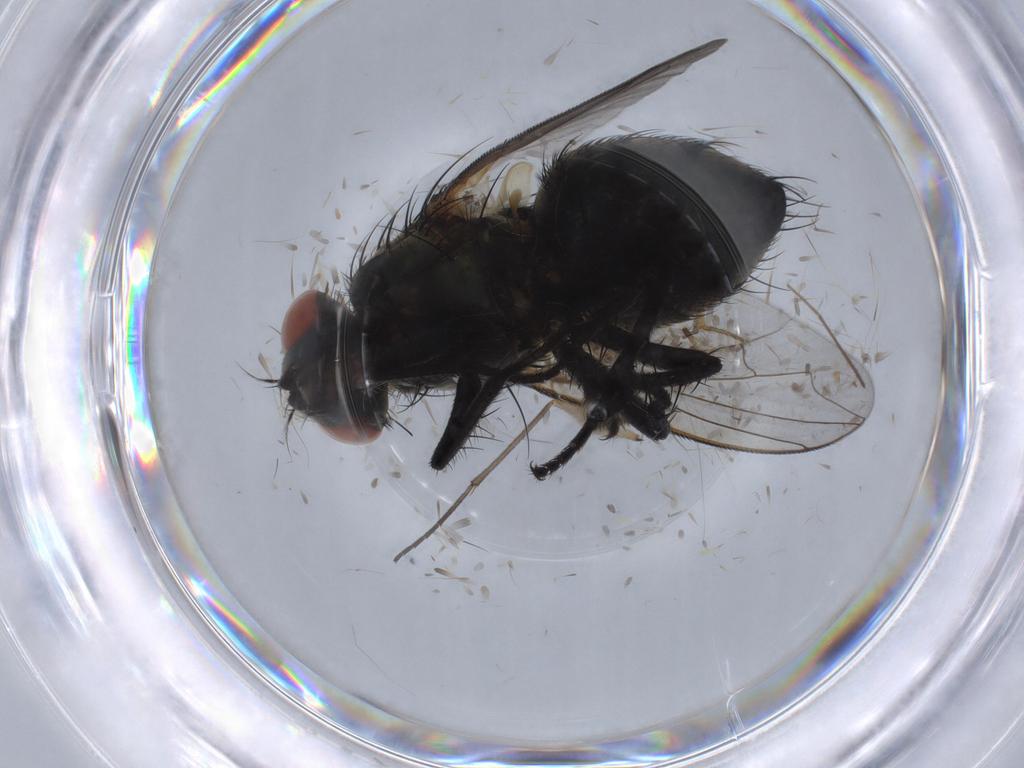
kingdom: Animalia
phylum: Arthropoda
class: Insecta
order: Diptera
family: Sarcophagidae
